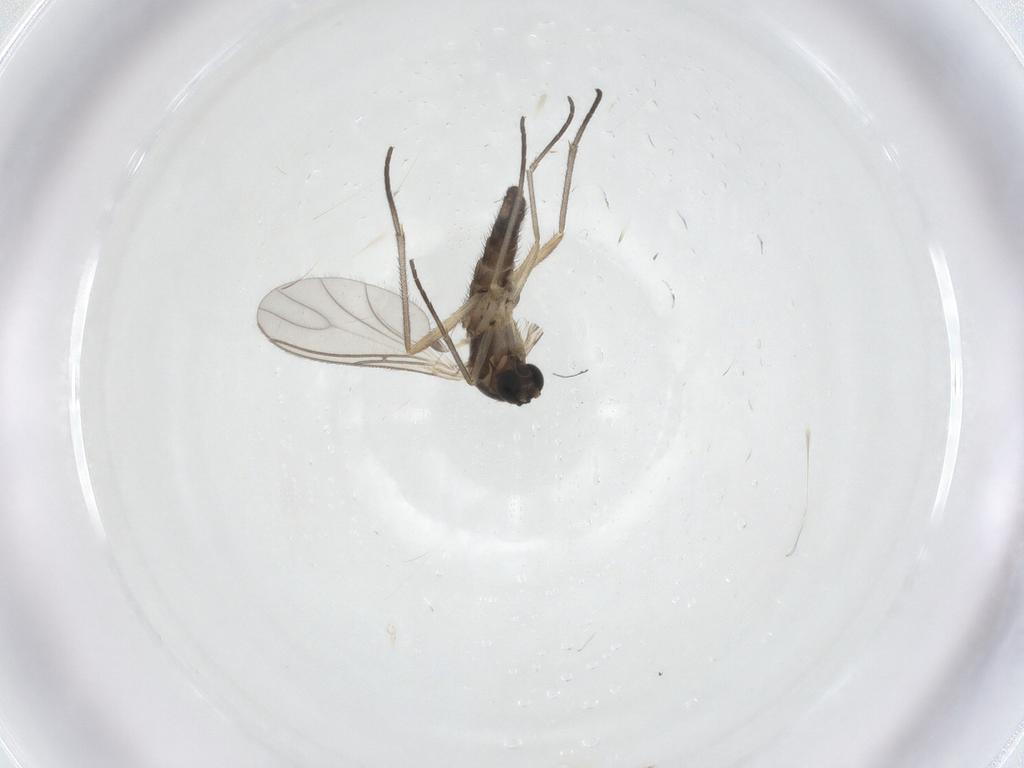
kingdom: Animalia
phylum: Arthropoda
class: Insecta
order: Diptera
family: Sciaridae
